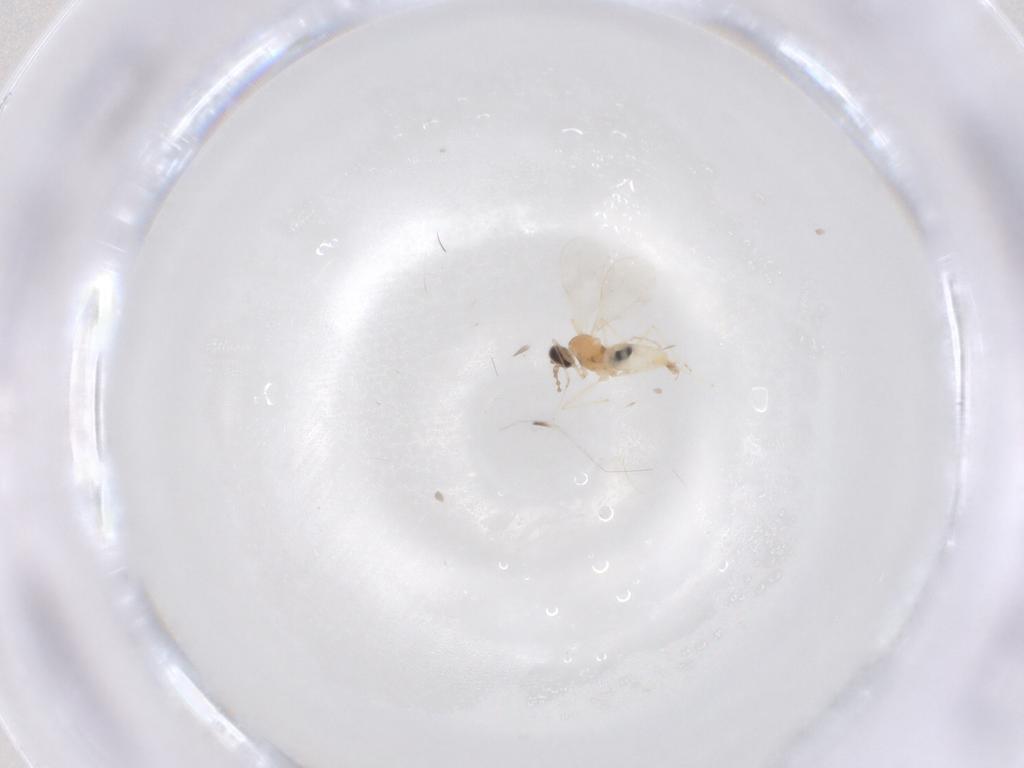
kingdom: Animalia
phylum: Arthropoda
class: Insecta
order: Diptera
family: Cecidomyiidae
